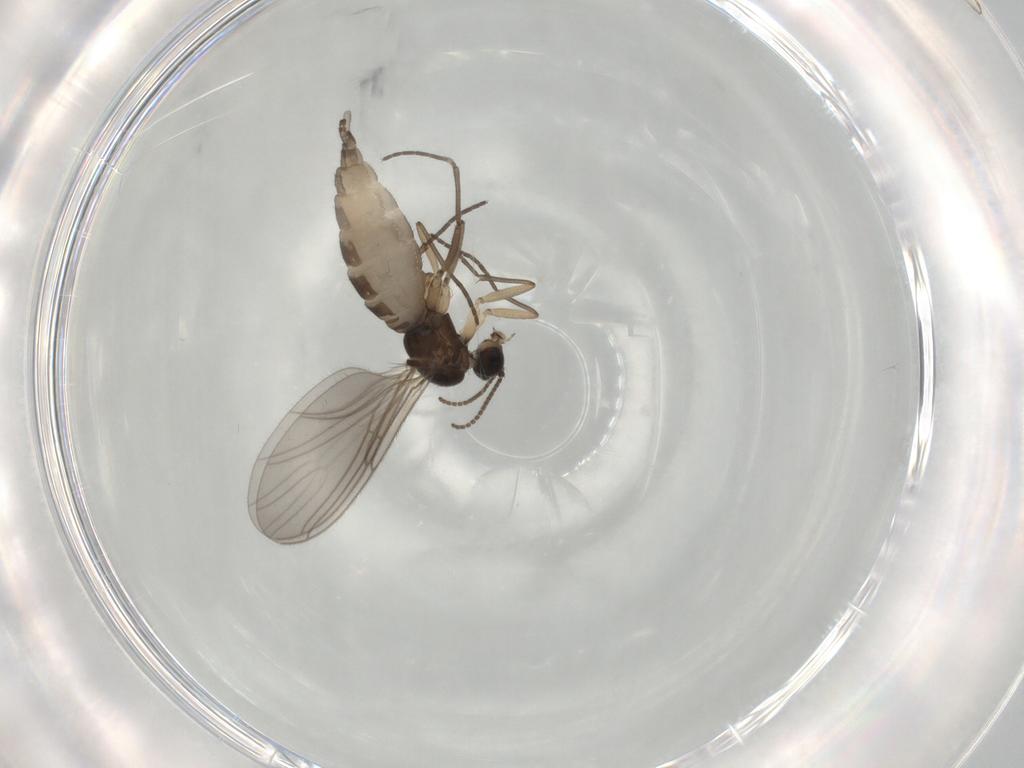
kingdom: Animalia
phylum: Arthropoda
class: Insecta
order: Diptera
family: Sciaridae
